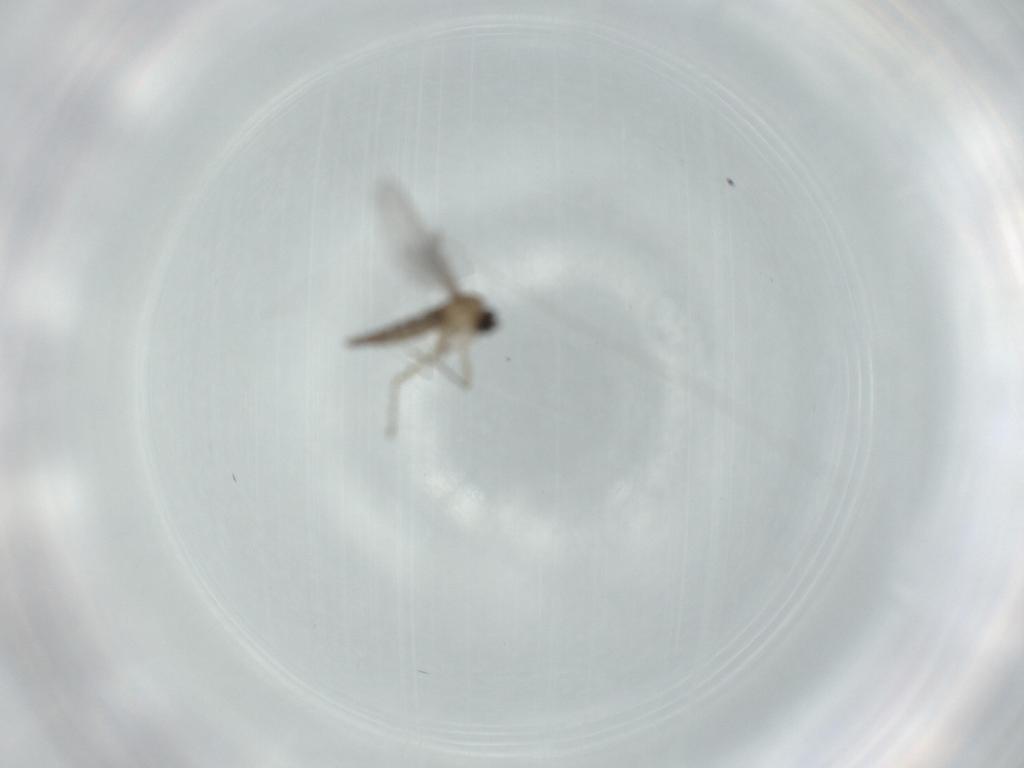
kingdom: Animalia
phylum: Arthropoda
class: Insecta
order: Diptera
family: Sciaridae
